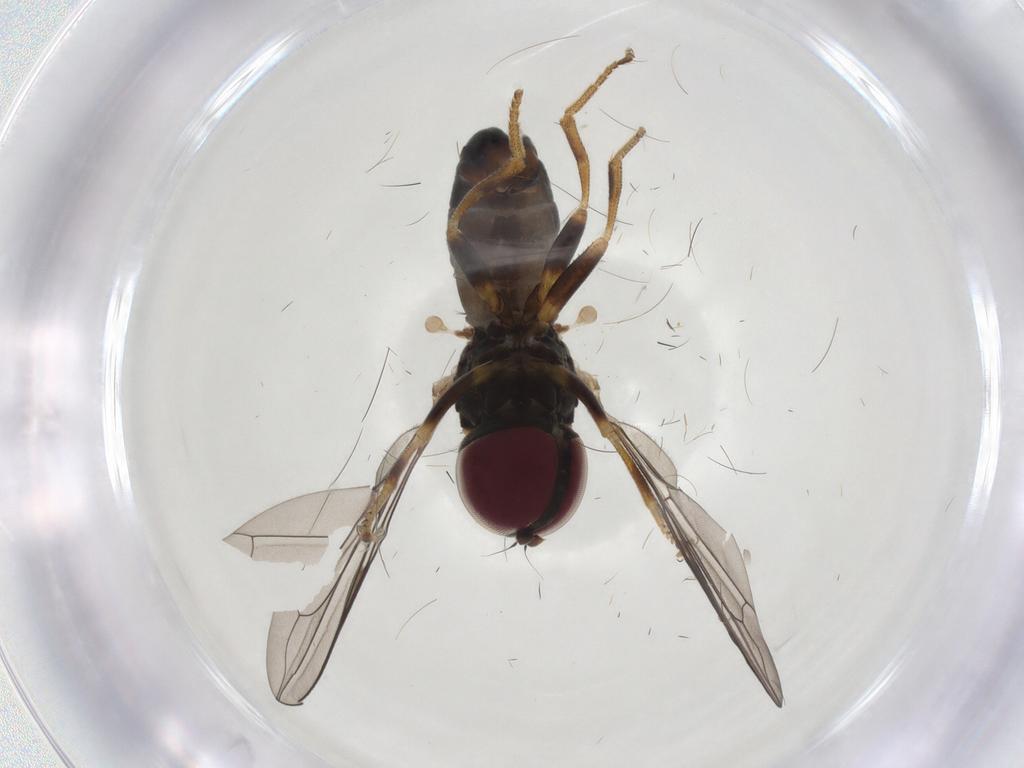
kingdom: Animalia
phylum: Arthropoda
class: Insecta
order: Diptera
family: Pipunculidae
